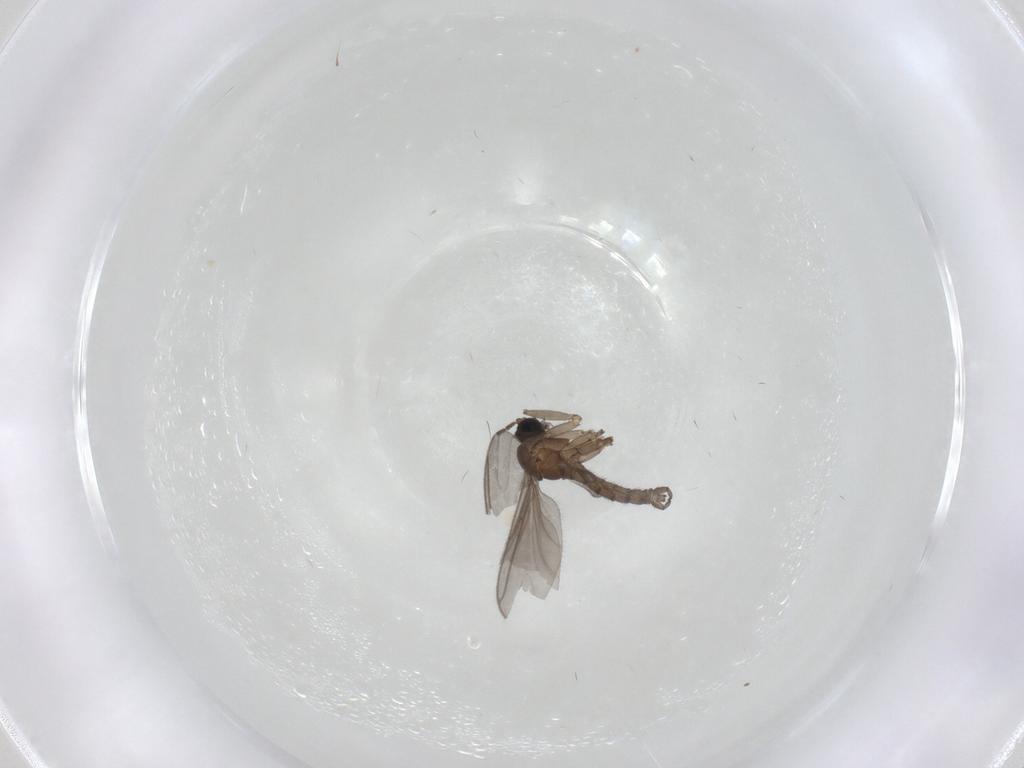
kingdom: Animalia
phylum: Arthropoda
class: Insecta
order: Diptera
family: Sciaridae
